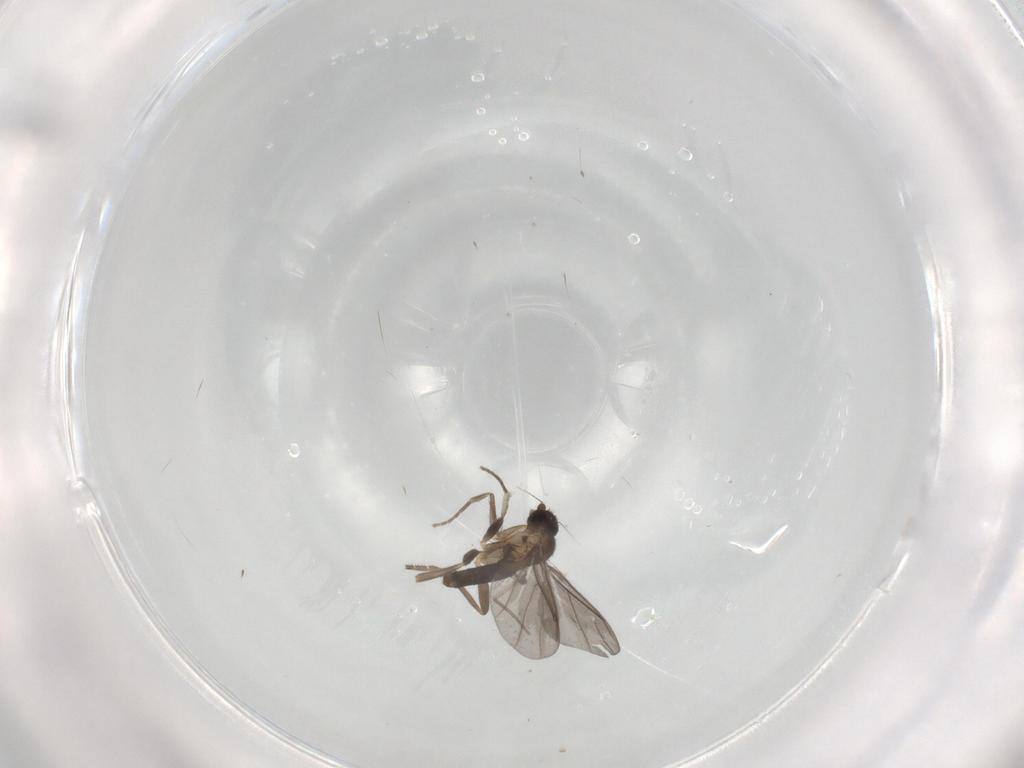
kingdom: Animalia
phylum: Arthropoda
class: Insecta
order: Diptera
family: Phoridae
